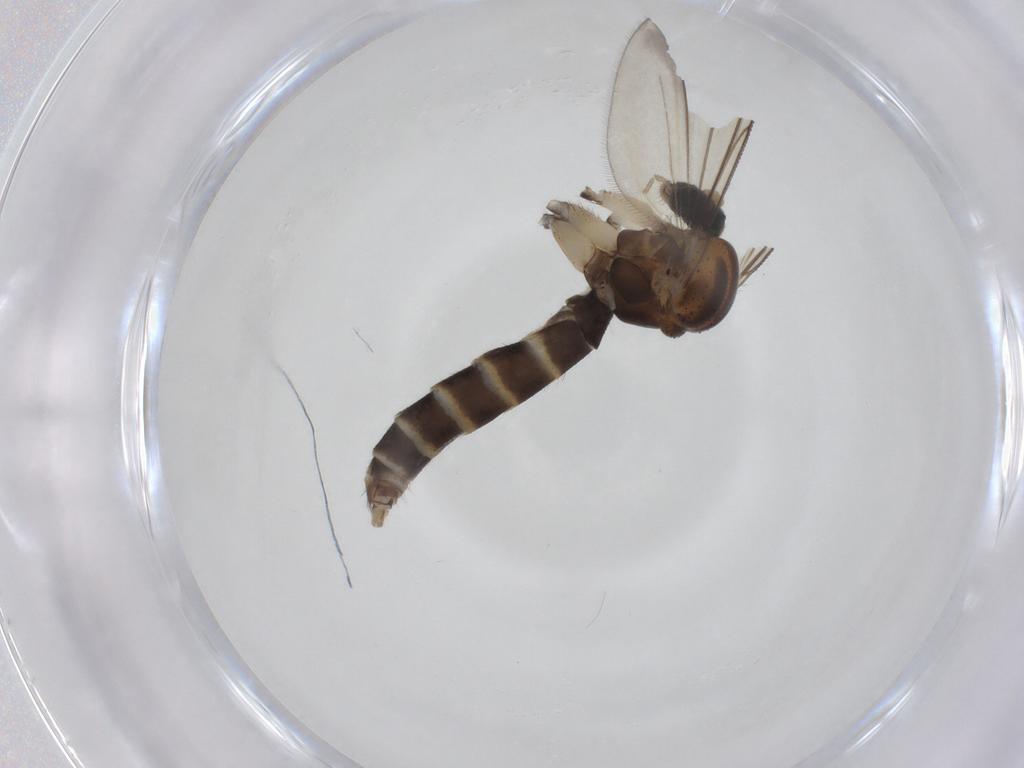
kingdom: Animalia
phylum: Arthropoda
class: Insecta
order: Diptera
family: Mycetophilidae
